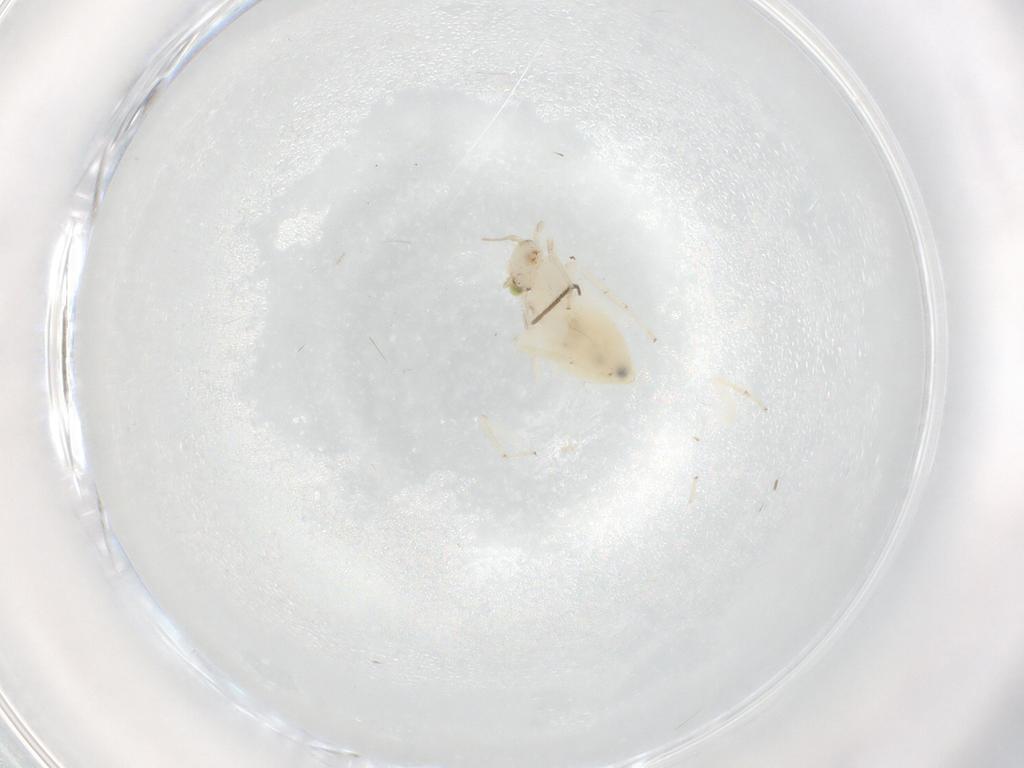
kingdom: Animalia
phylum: Arthropoda
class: Insecta
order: Psocodea
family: Lepidopsocidae
